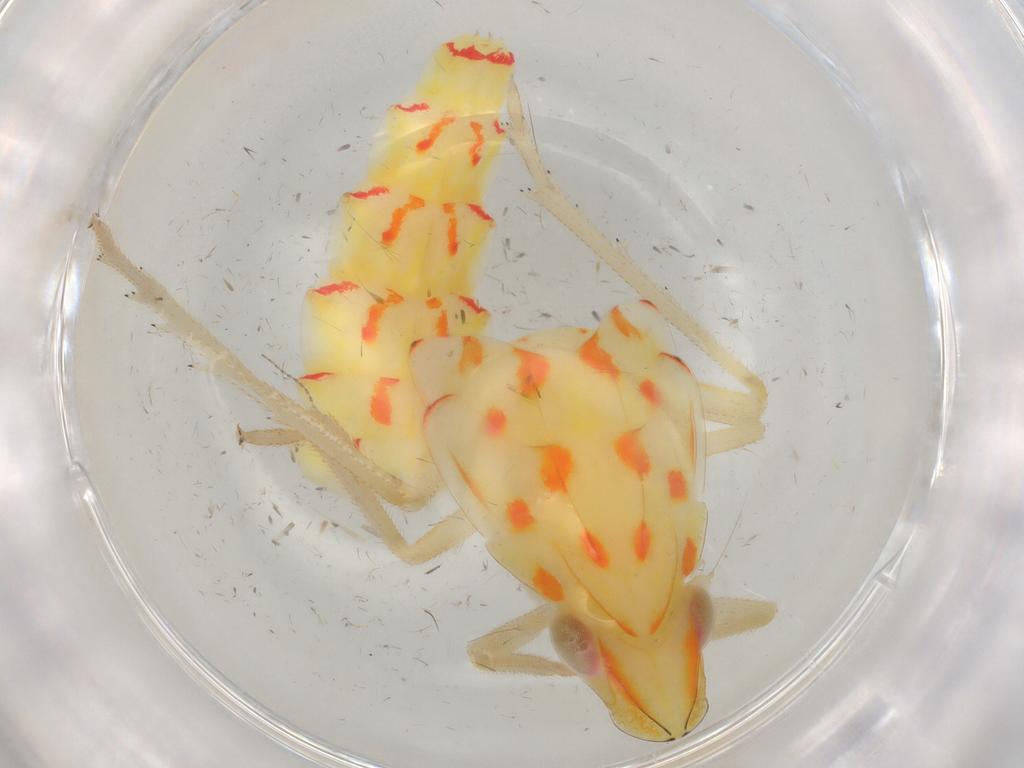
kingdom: Animalia
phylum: Arthropoda
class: Insecta
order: Hemiptera
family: Tropiduchidae
